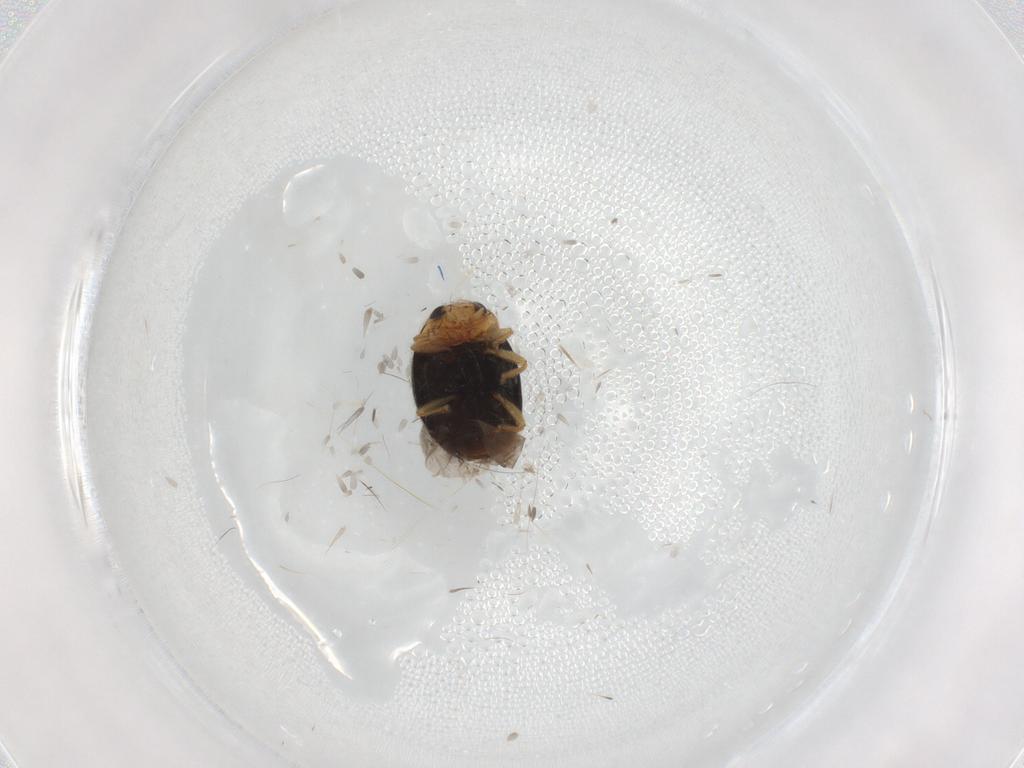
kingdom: Animalia
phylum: Arthropoda
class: Insecta
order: Coleoptera
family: Coccinellidae
